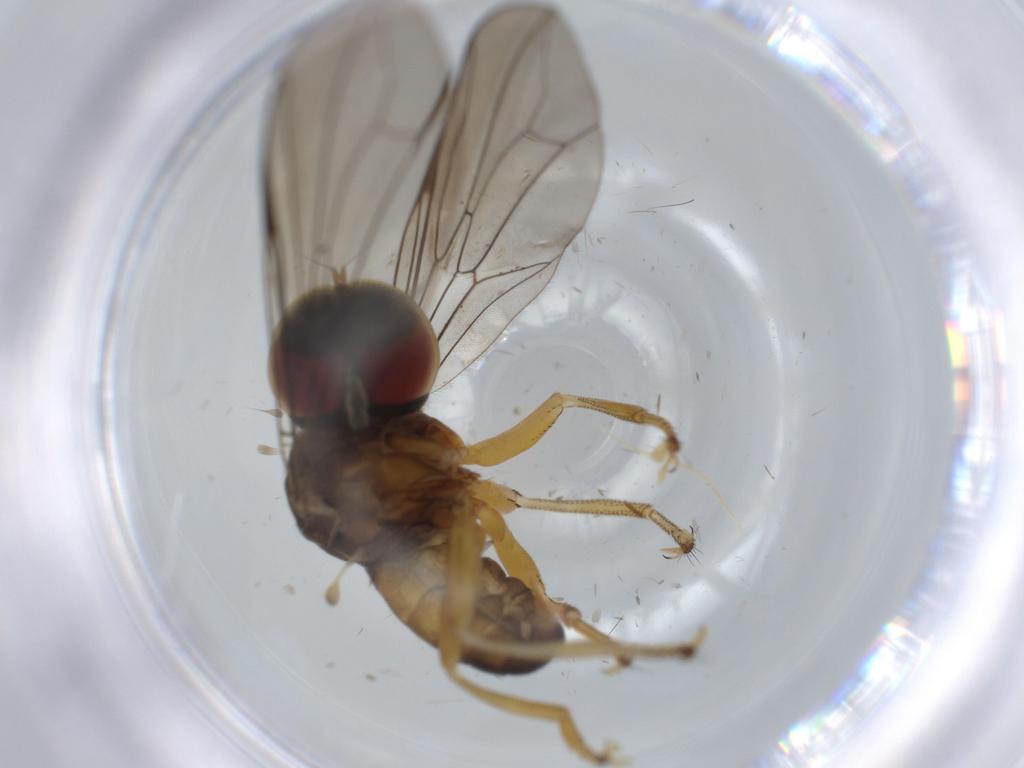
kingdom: Animalia
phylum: Arthropoda
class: Insecta
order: Diptera
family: Pipunculidae
